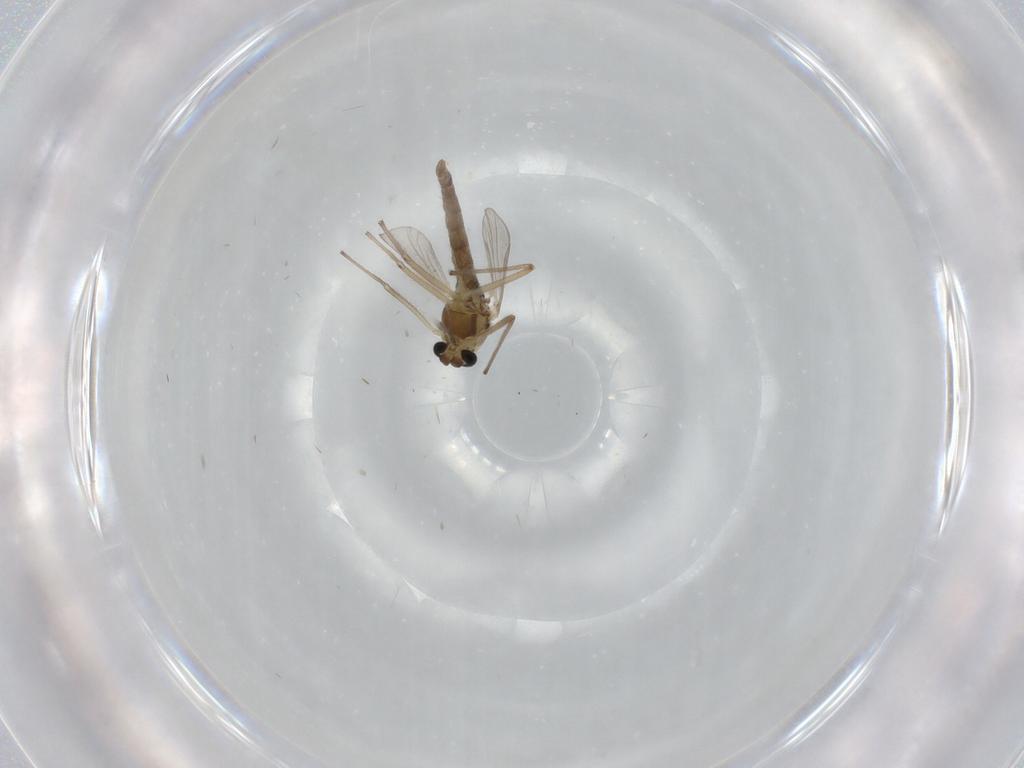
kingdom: Animalia
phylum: Arthropoda
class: Insecta
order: Diptera
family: Chironomidae
